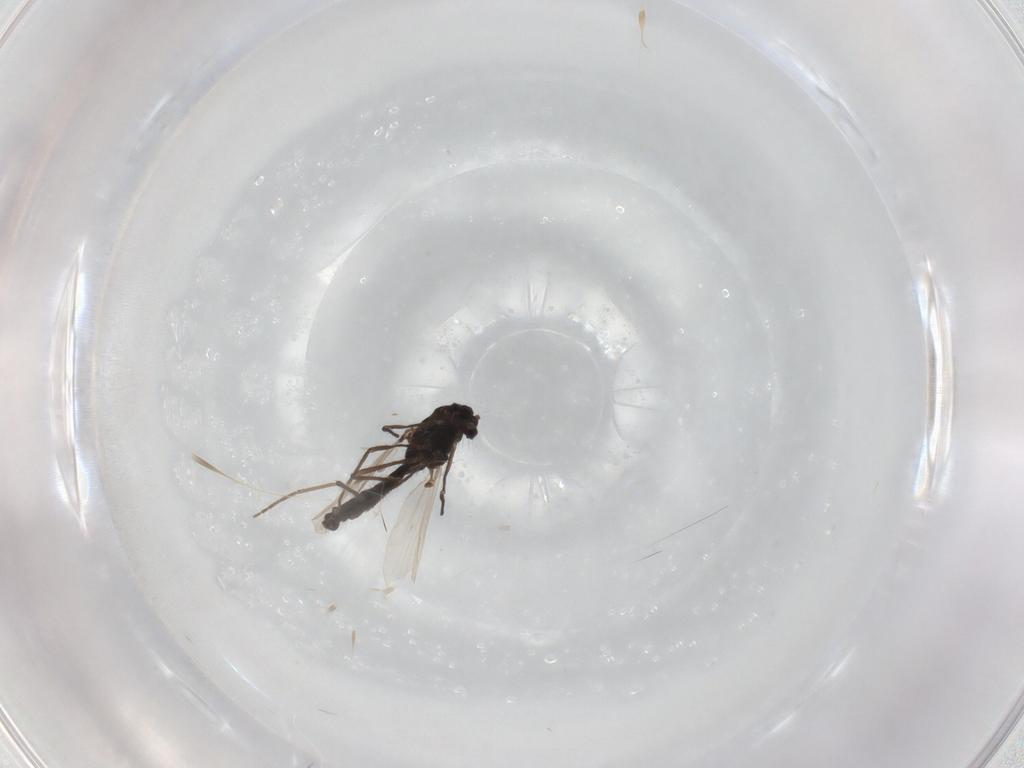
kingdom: Animalia
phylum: Arthropoda
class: Insecta
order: Diptera
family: Chironomidae
